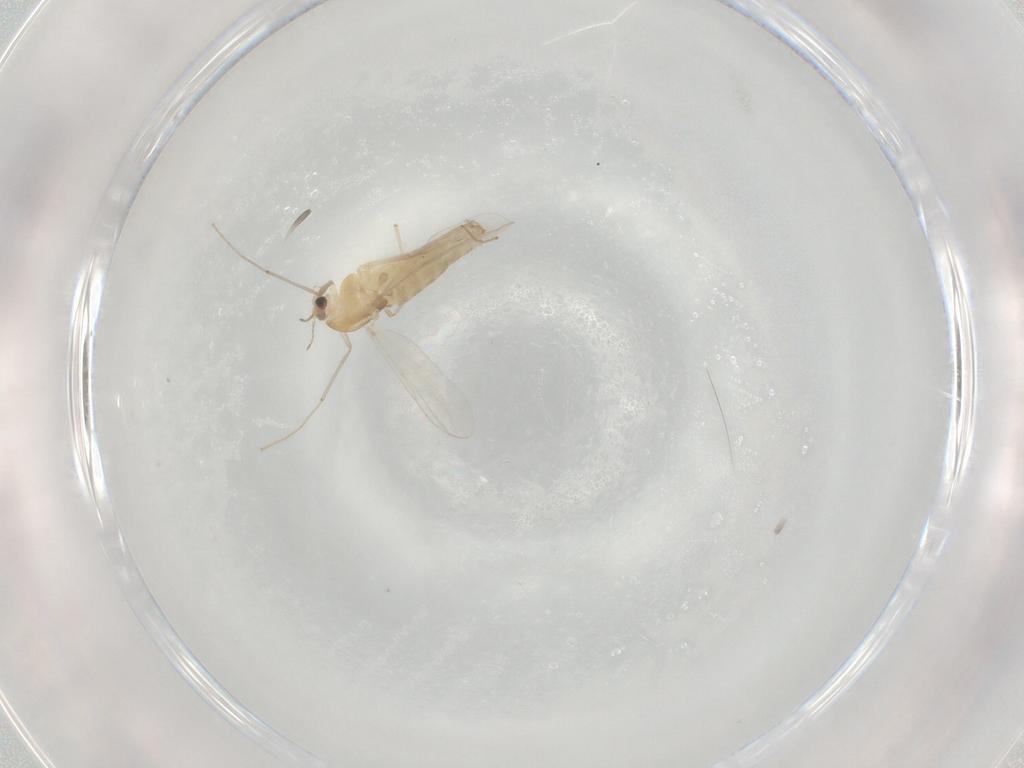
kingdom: Animalia
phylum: Arthropoda
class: Insecta
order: Diptera
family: Chironomidae
